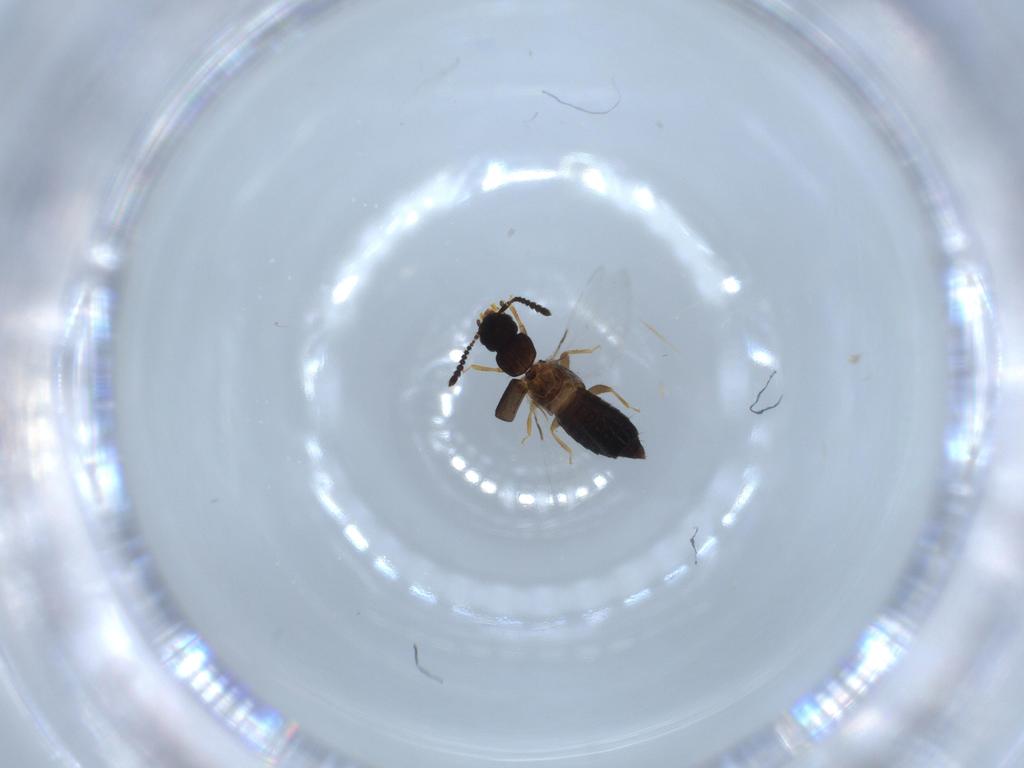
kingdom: Animalia
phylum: Arthropoda
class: Insecta
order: Coleoptera
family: Staphylinidae
